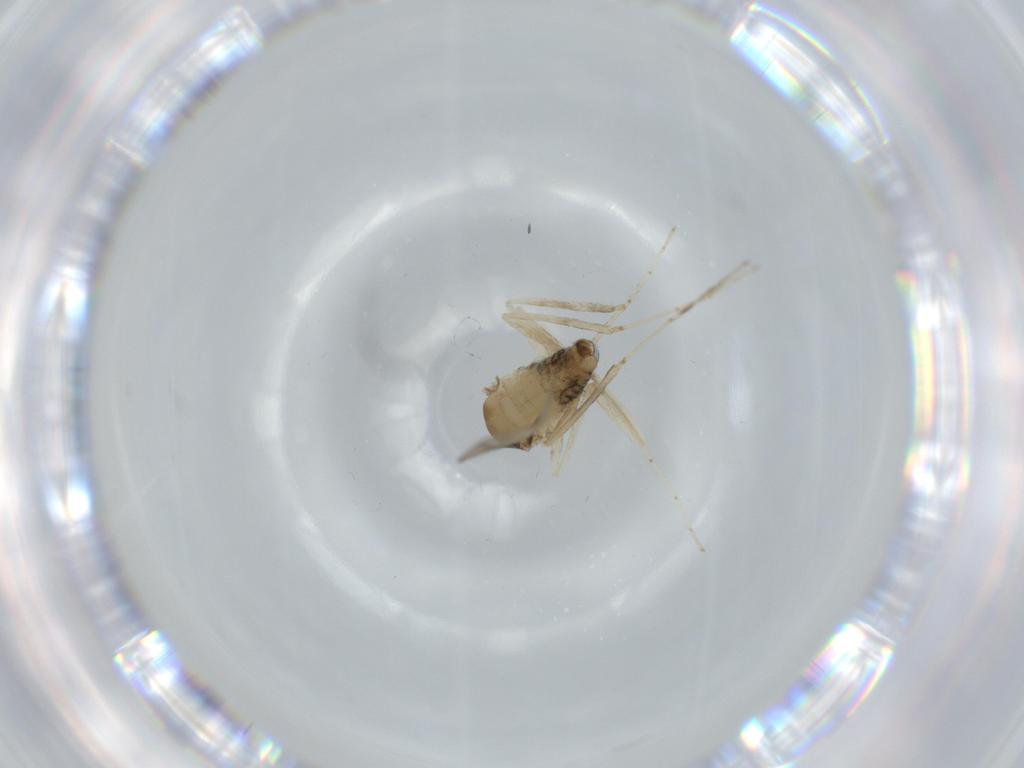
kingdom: Animalia
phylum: Arthropoda
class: Insecta
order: Diptera
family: Cecidomyiidae
